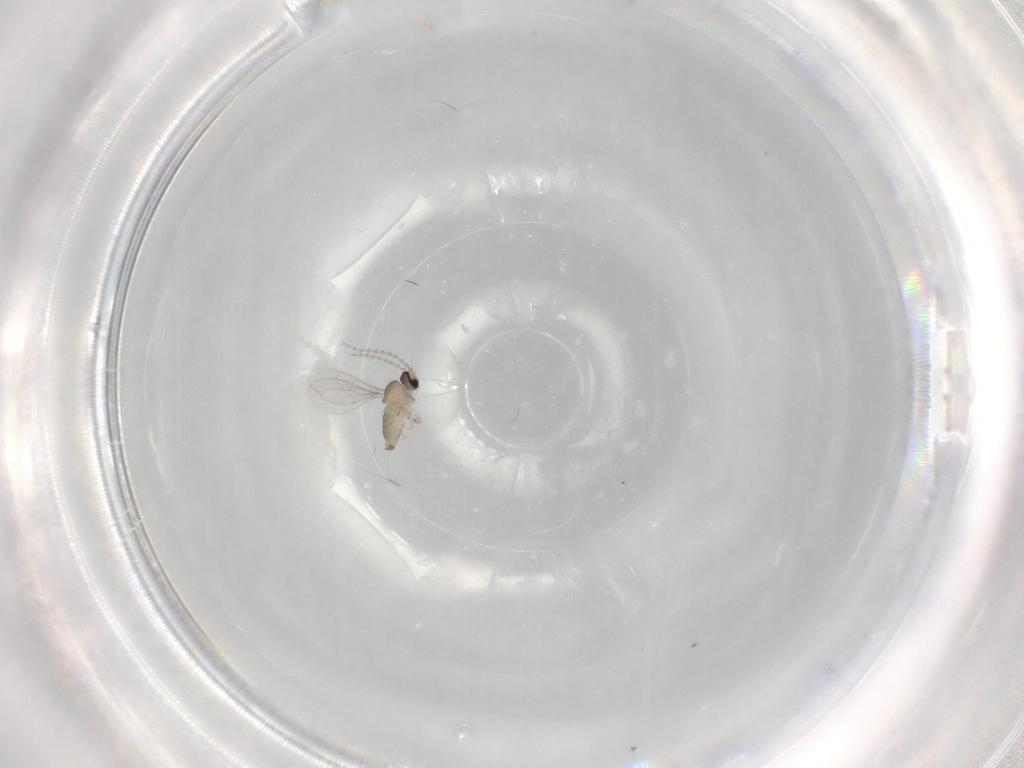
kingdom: Animalia
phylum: Arthropoda
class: Insecta
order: Diptera
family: Cecidomyiidae
